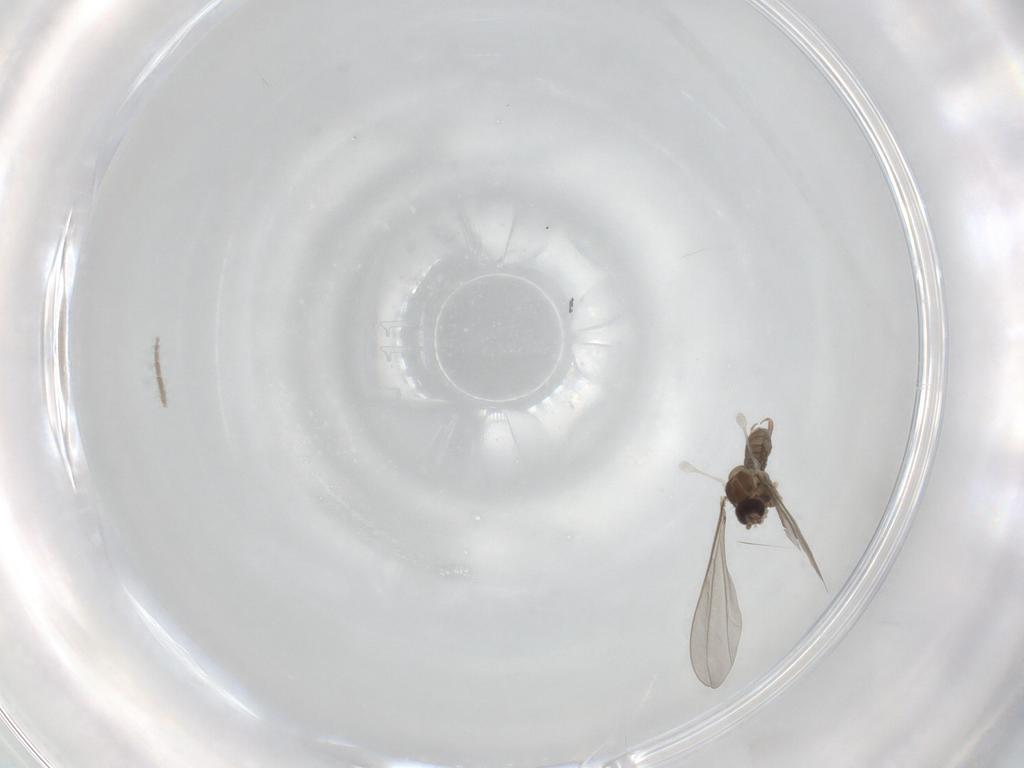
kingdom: Animalia
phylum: Arthropoda
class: Insecta
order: Diptera
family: Cecidomyiidae
